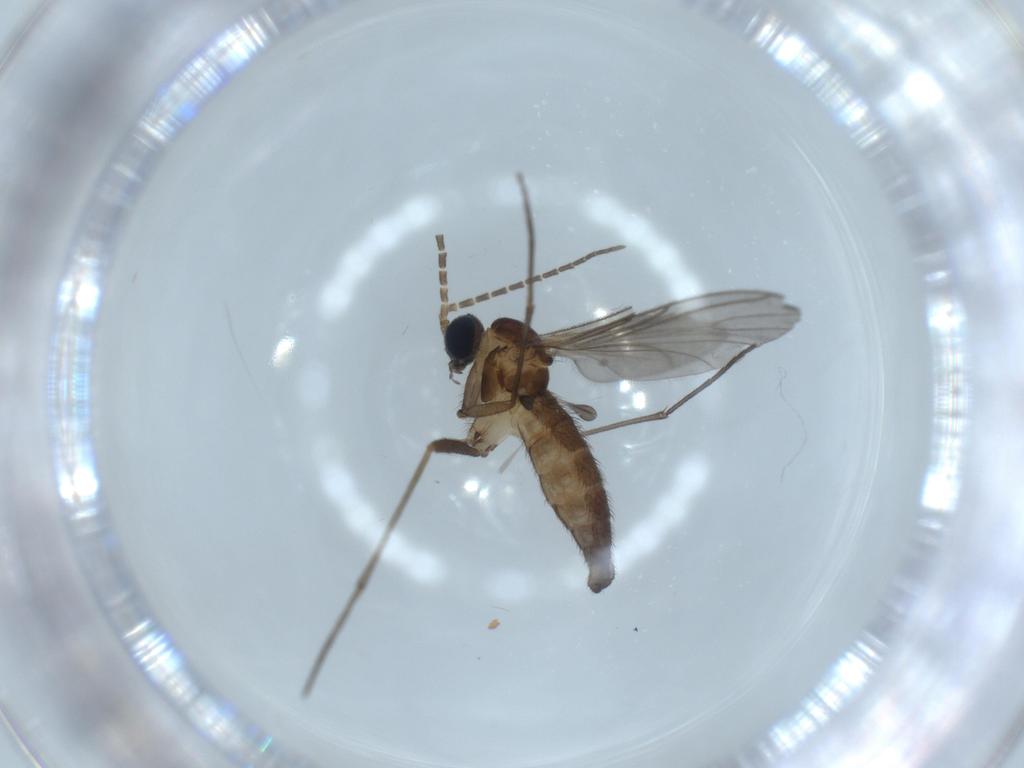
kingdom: Animalia
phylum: Arthropoda
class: Insecta
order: Diptera
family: Sciaridae
